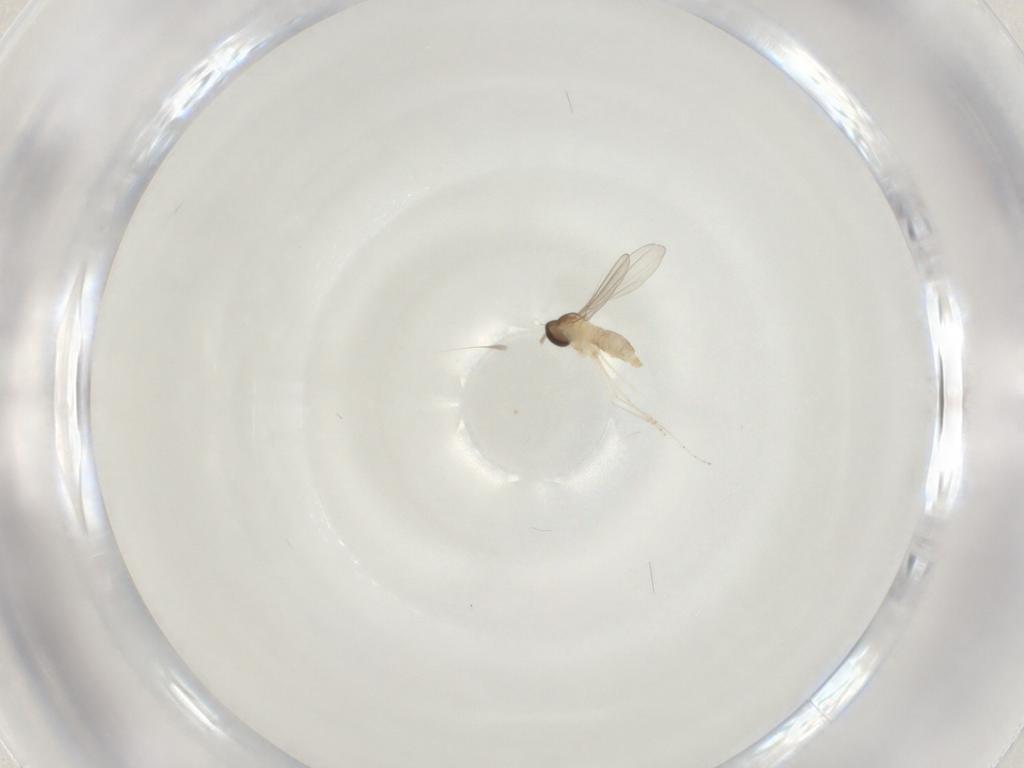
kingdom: Animalia
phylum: Arthropoda
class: Insecta
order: Diptera
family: Cecidomyiidae
